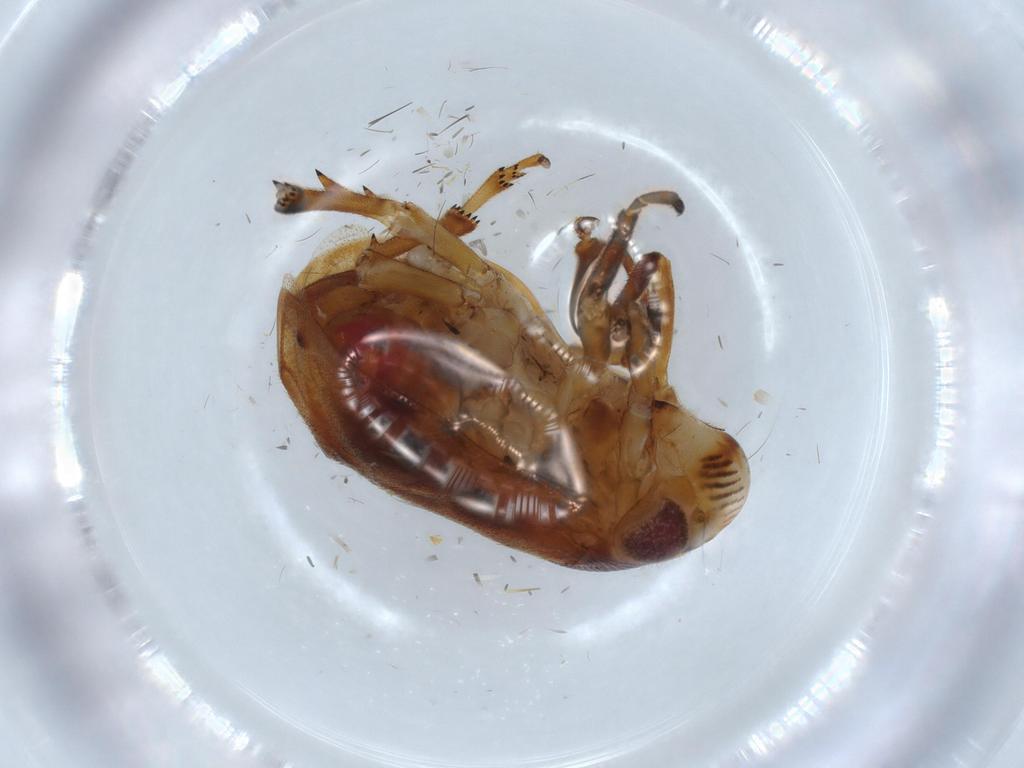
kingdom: Animalia
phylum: Arthropoda
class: Insecta
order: Hemiptera
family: Clastopteridae
